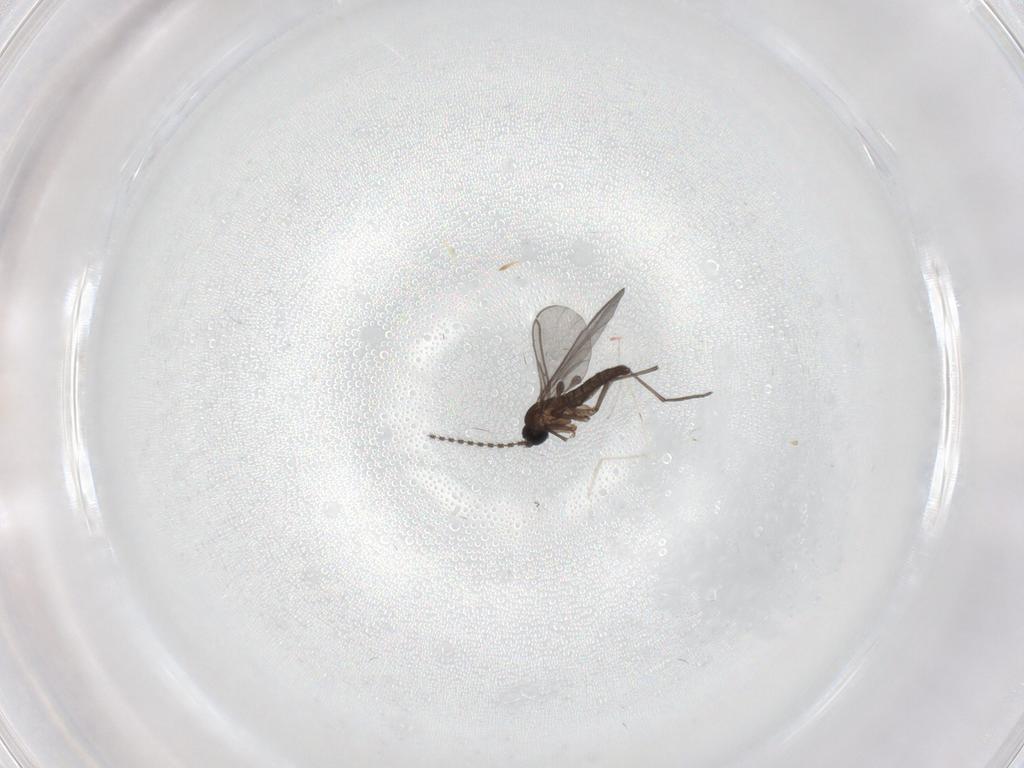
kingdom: Animalia
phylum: Arthropoda
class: Insecta
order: Diptera
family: Cecidomyiidae
